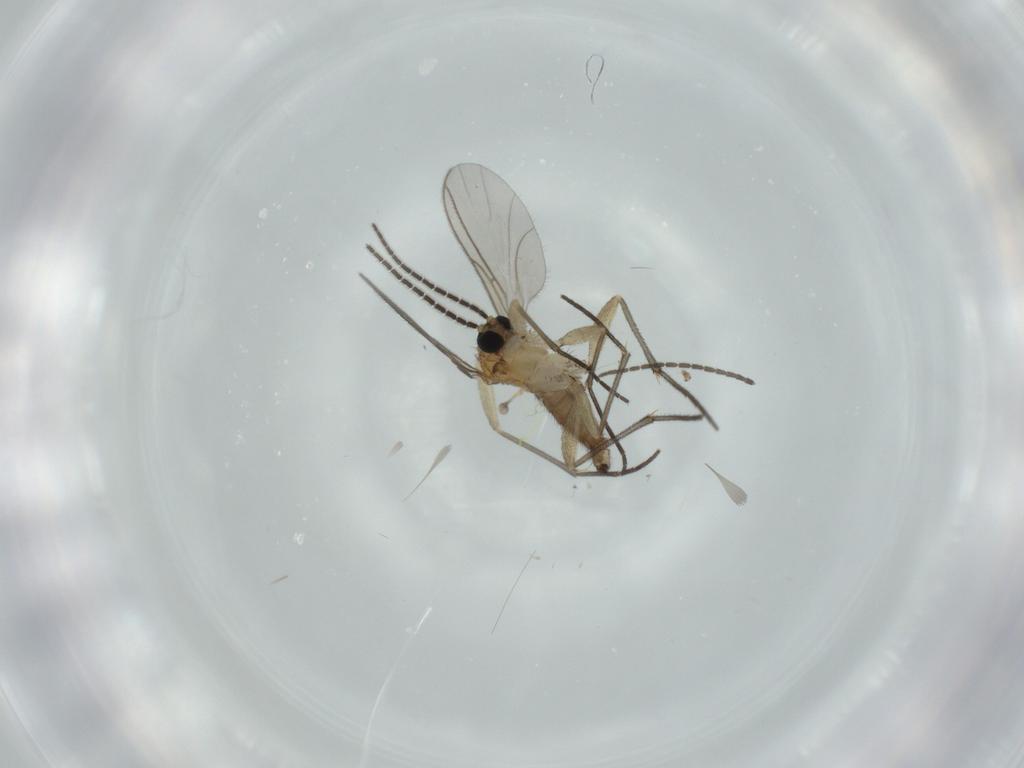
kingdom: Animalia
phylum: Arthropoda
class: Insecta
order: Diptera
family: Sciaridae
